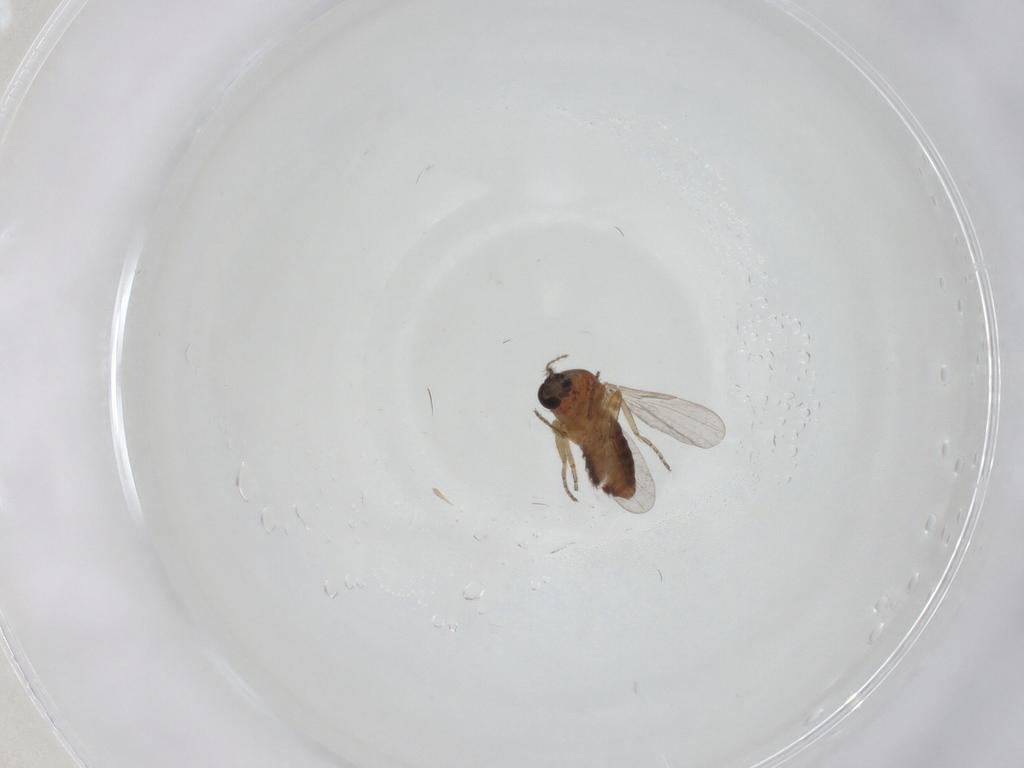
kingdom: Animalia
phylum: Arthropoda
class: Insecta
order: Diptera
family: Ceratopogonidae
